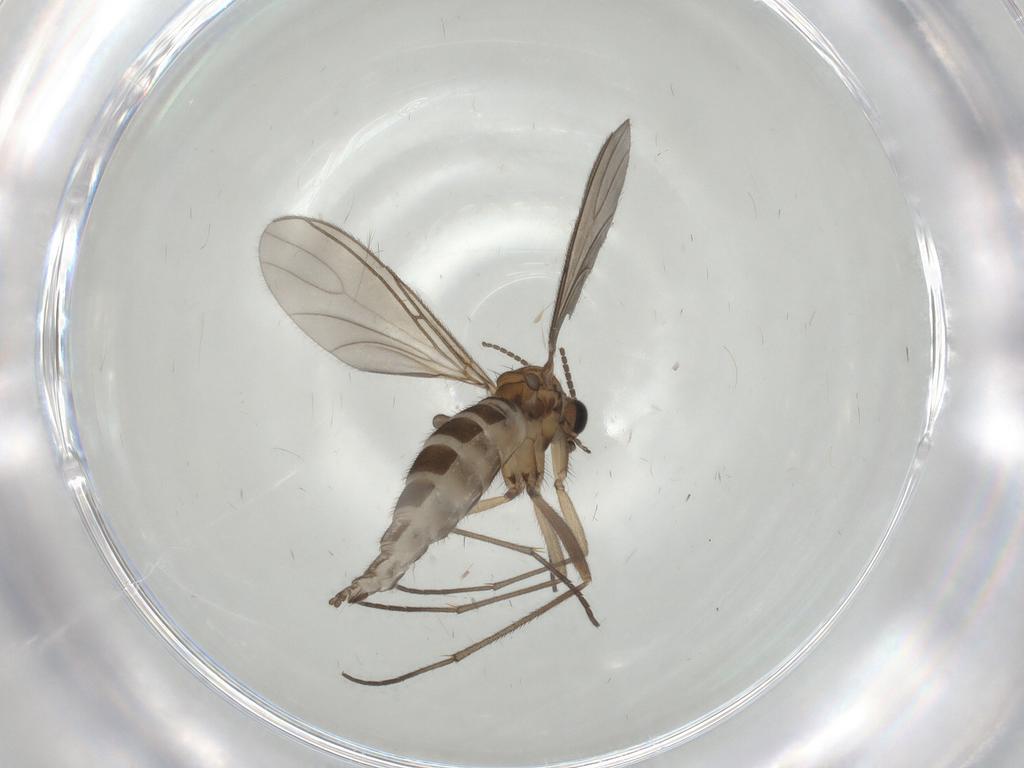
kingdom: Animalia
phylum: Arthropoda
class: Insecta
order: Diptera
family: Sciaridae
